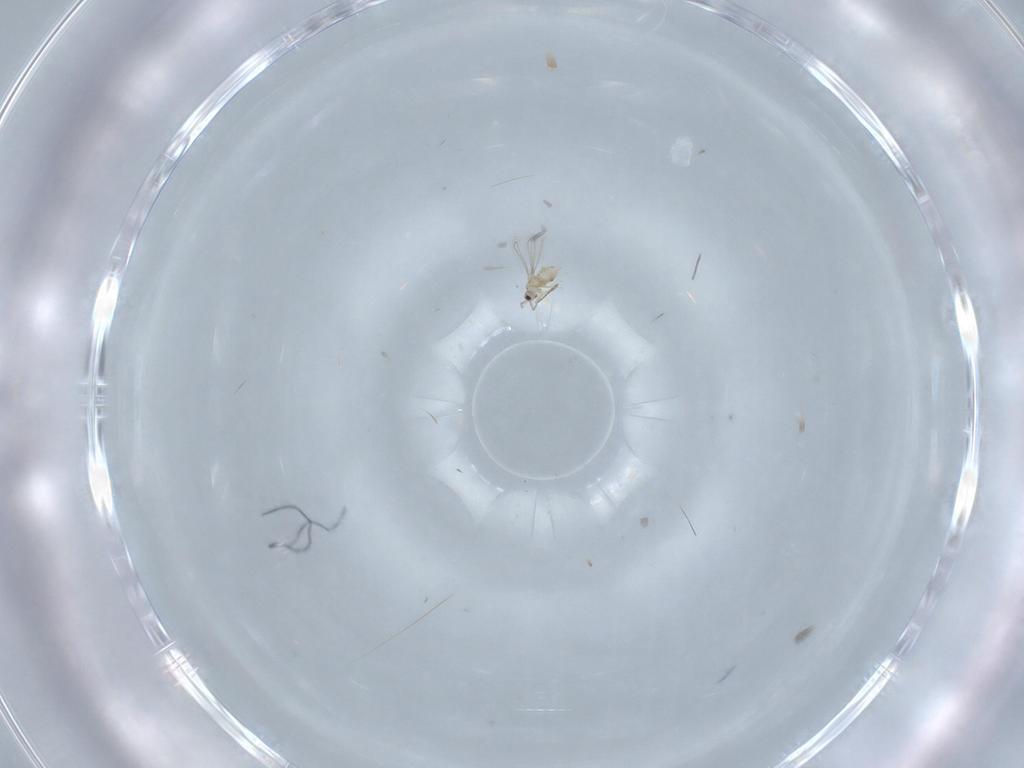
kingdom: Animalia
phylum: Arthropoda
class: Insecta
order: Hymenoptera
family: Mymaridae
